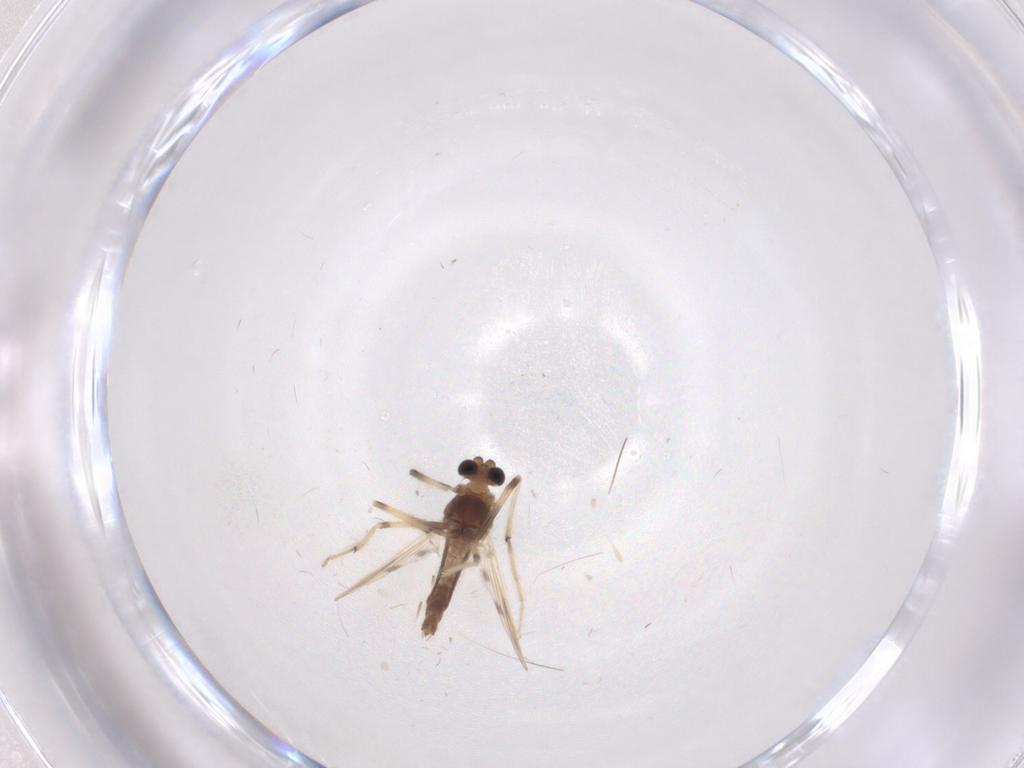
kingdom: Animalia
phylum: Arthropoda
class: Insecta
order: Diptera
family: Chironomidae
